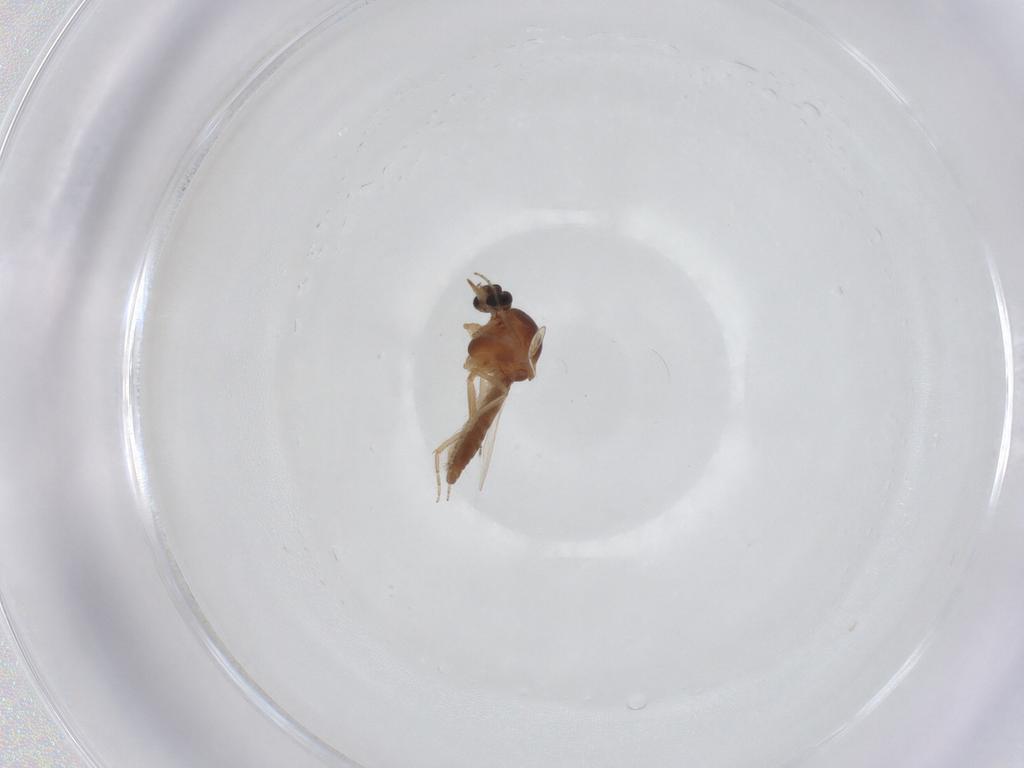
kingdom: Animalia
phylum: Arthropoda
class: Insecta
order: Diptera
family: Ceratopogonidae
